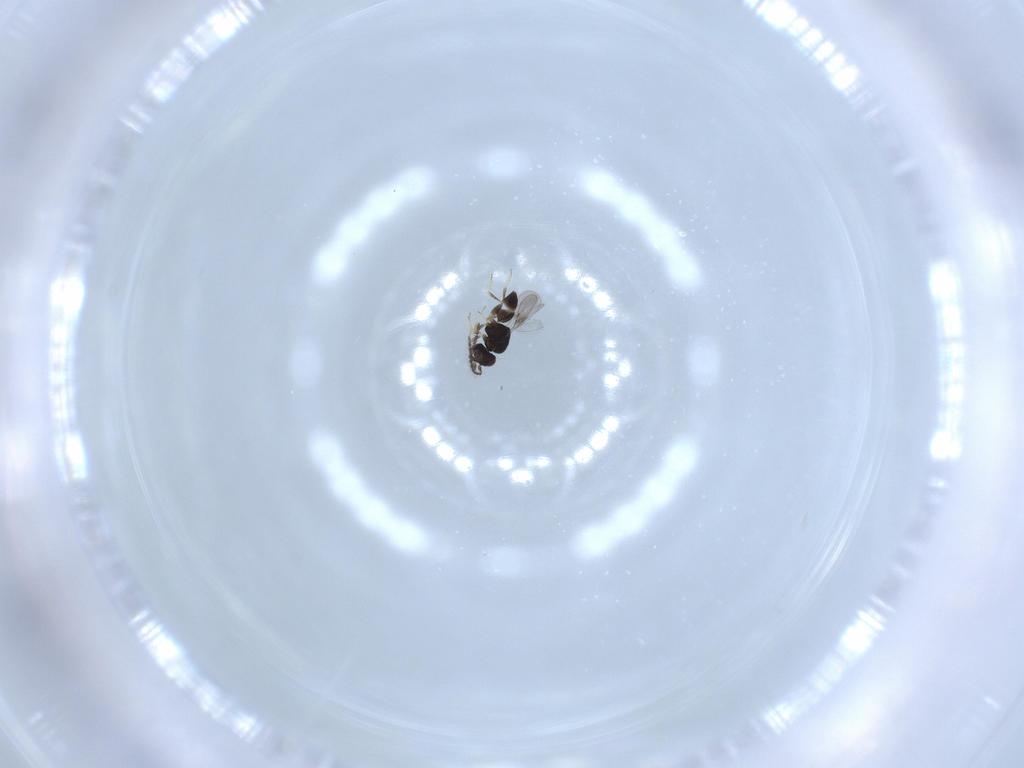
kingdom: Animalia
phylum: Arthropoda
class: Insecta
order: Hymenoptera
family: Ceraphronidae
